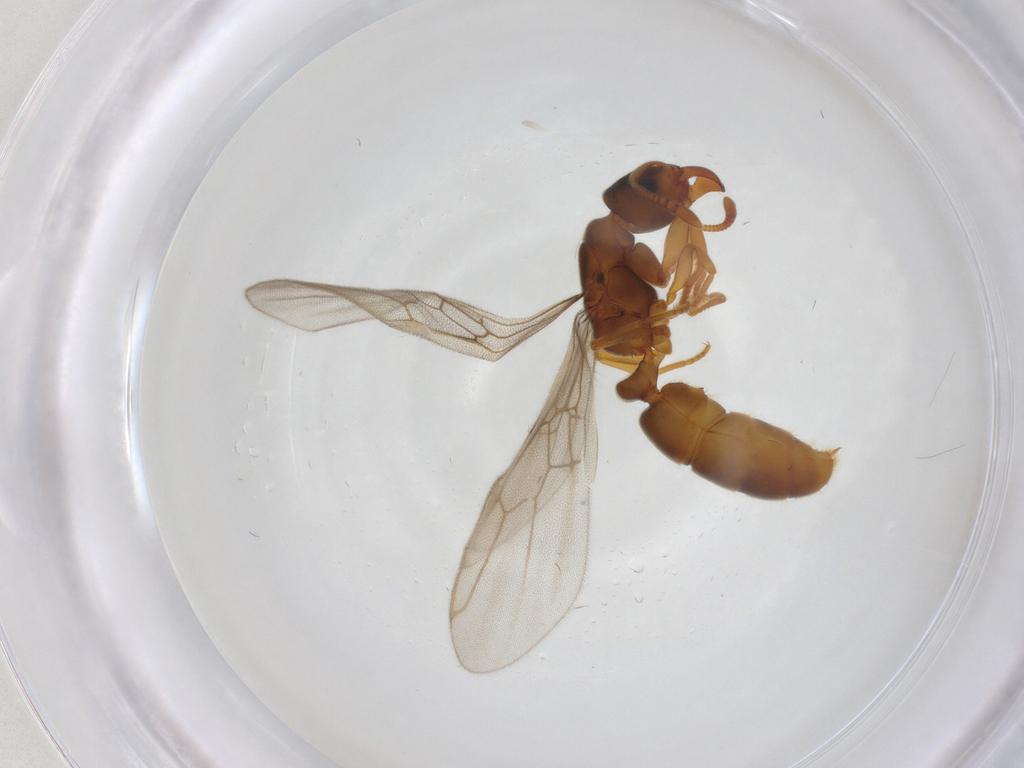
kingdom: Animalia
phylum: Arthropoda
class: Insecta
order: Hymenoptera
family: Formicidae
